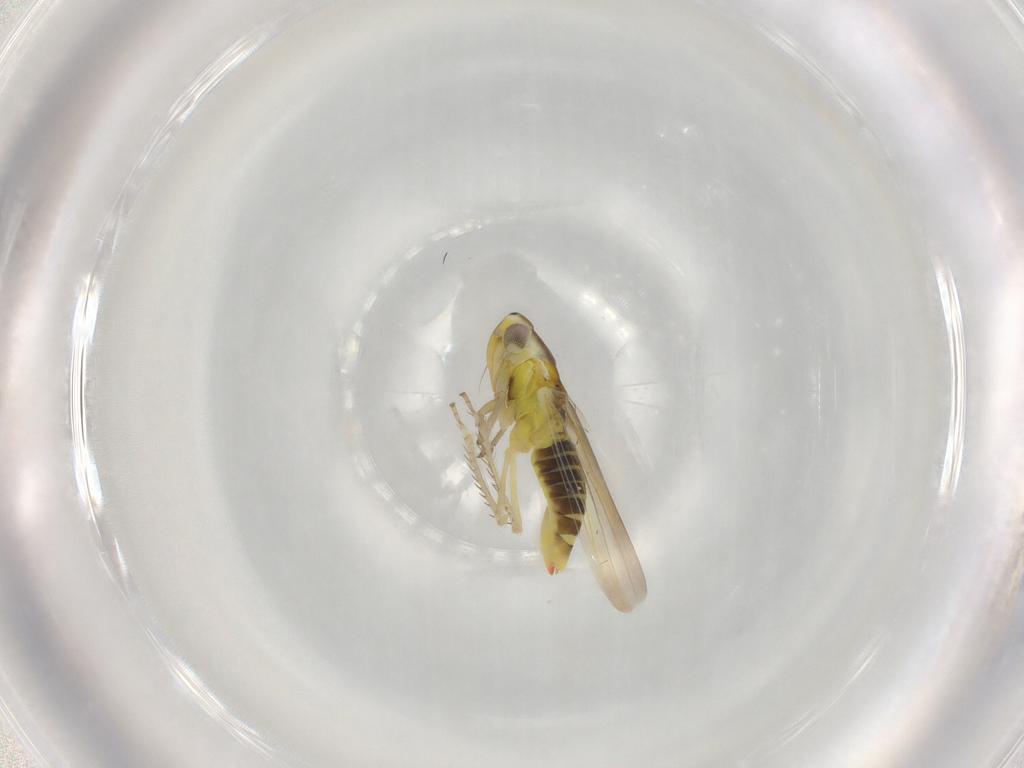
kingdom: Animalia
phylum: Arthropoda
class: Insecta
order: Hemiptera
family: Cicadellidae
